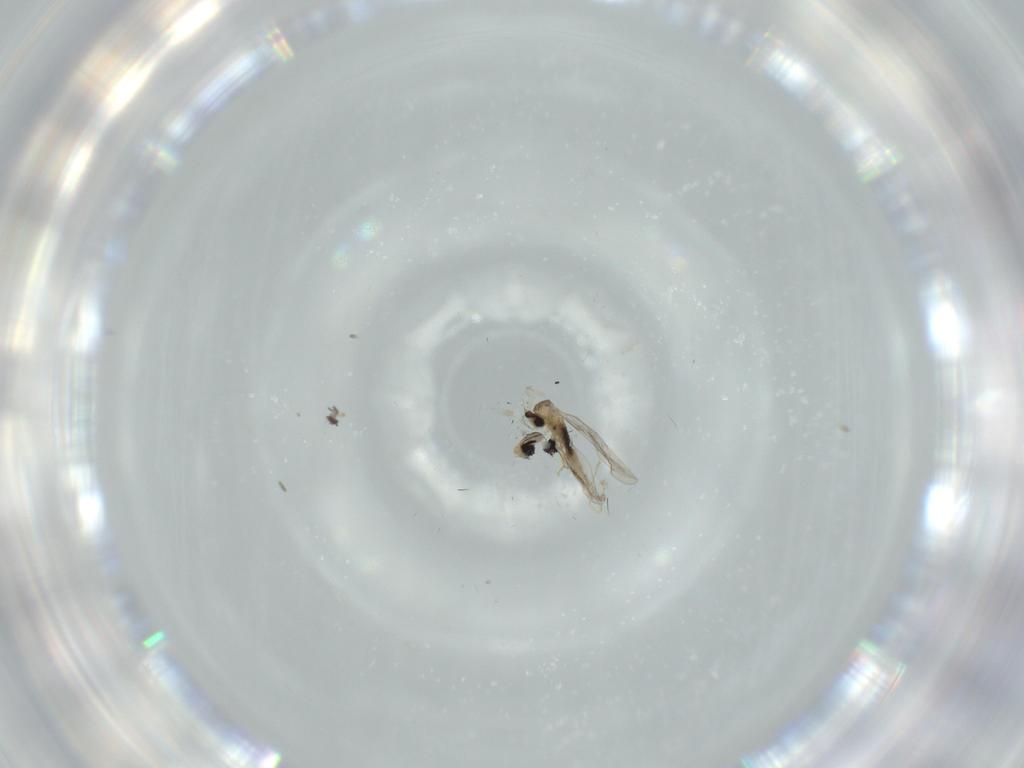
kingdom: Animalia
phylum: Arthropoda
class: Insecta
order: Diptera
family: Cecidomyiidae
